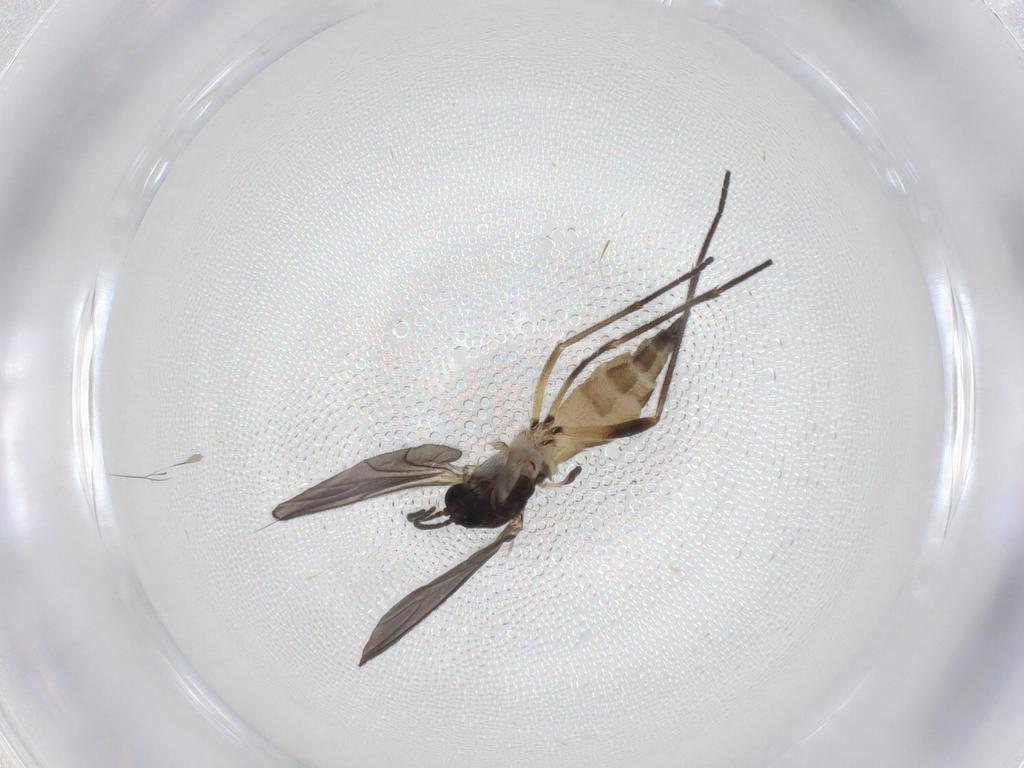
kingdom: Animalia
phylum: Arthropoda
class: Insecta
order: Diptera
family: Sciaridae
